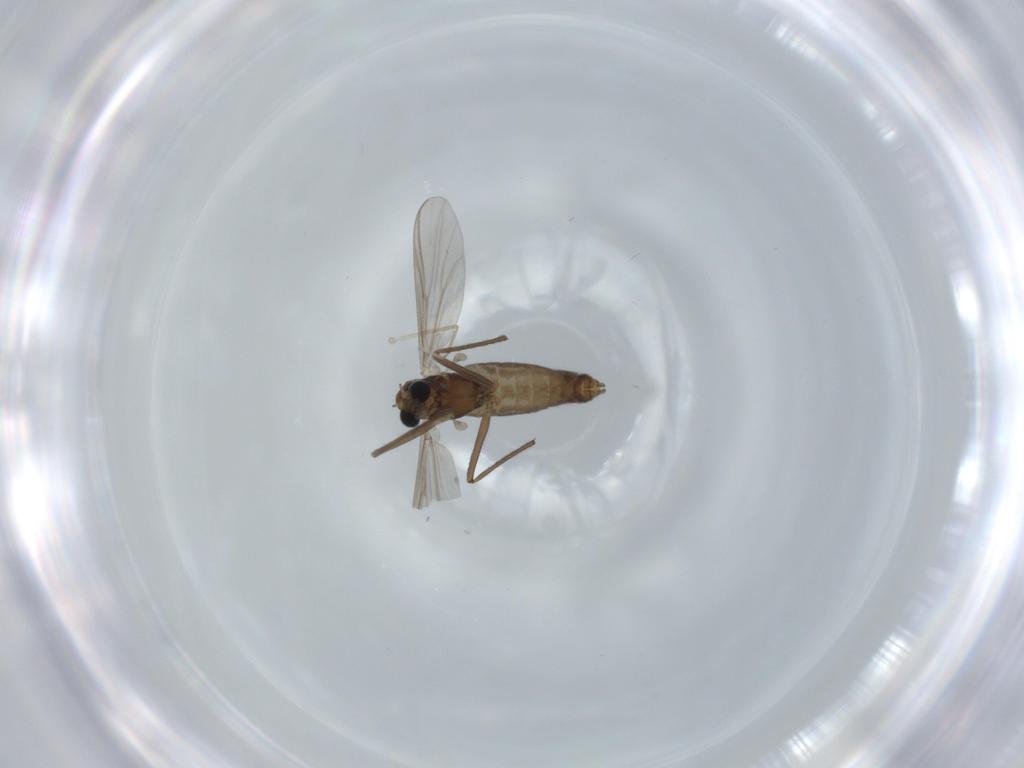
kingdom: Animalia
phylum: Arthropoda
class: Insecta
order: Diptera
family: Chironomidae
